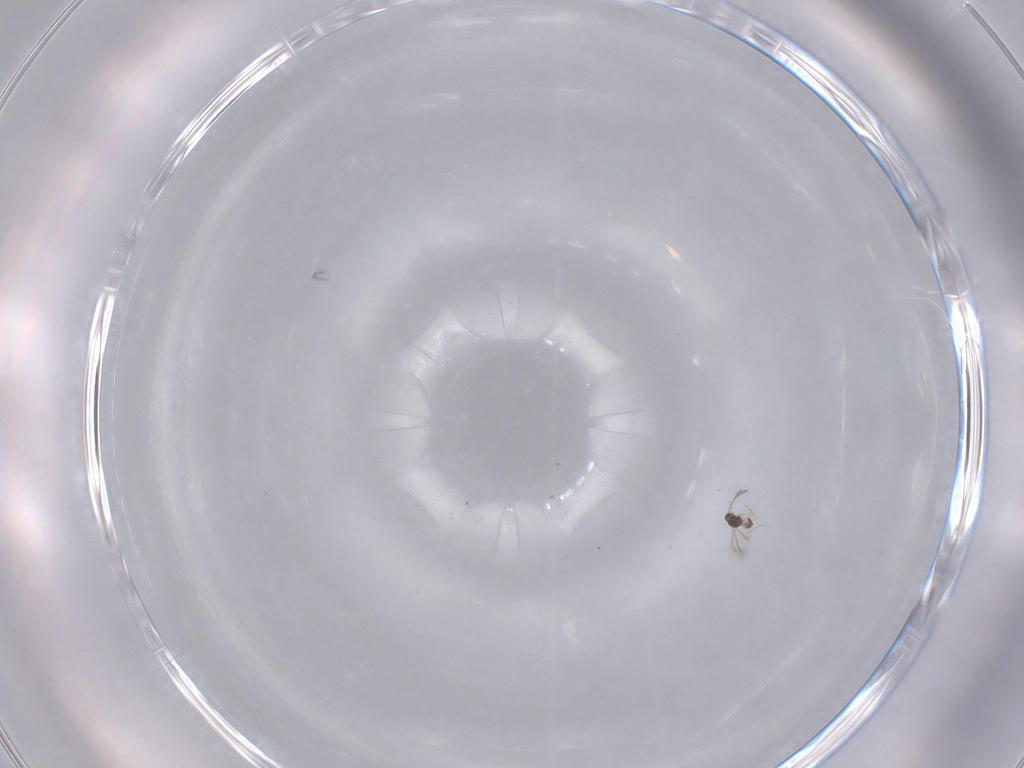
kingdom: Animalia
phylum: Arthropoda
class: Insecta
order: Hymenoptera
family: Mymaridae
